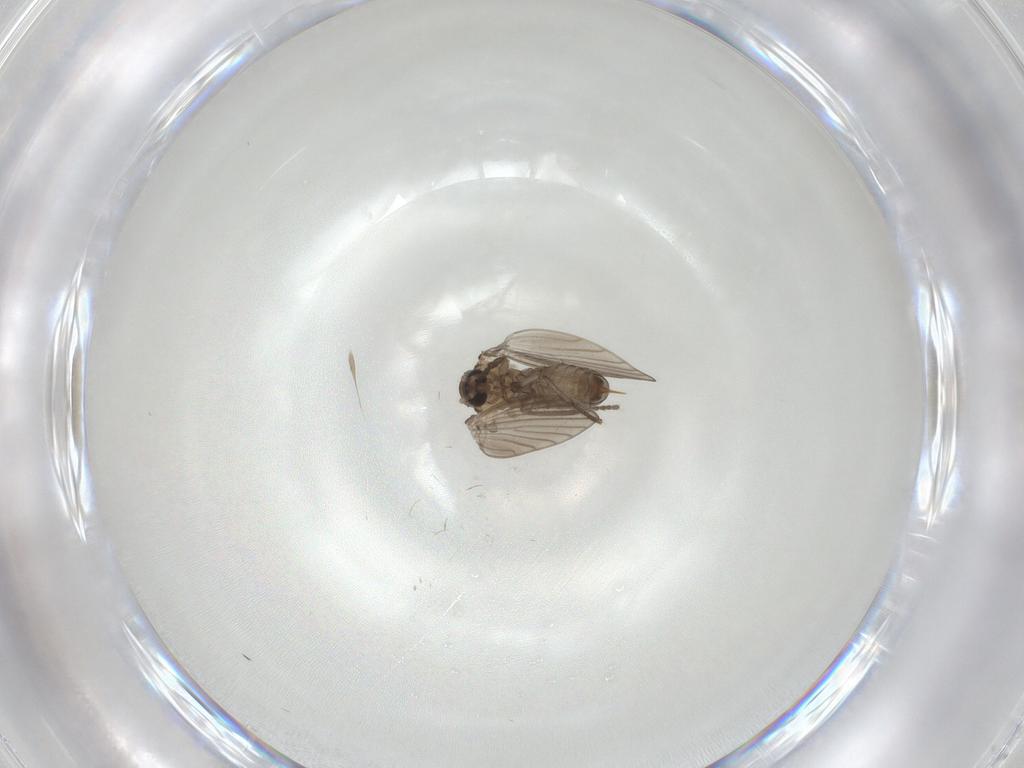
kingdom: Animalia
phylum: Arthropoda
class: Insecta
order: Diptera
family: Psychodidae
